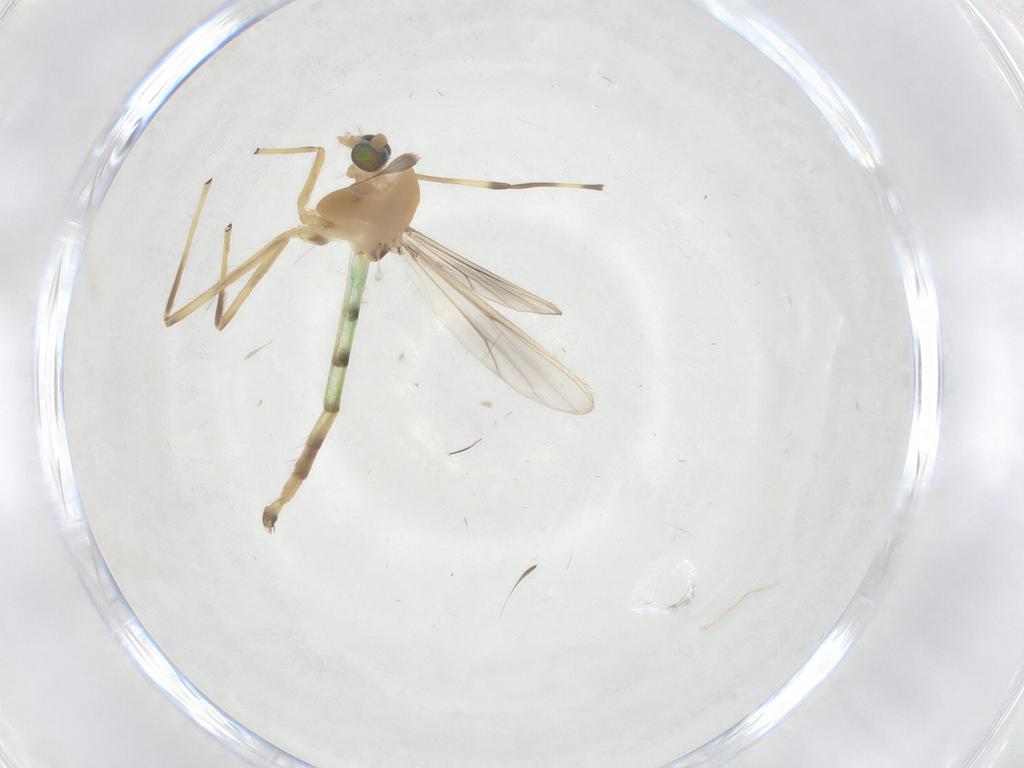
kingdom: Animalia
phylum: Arthropoda
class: Insecta
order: Diptera
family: Chironomidae
